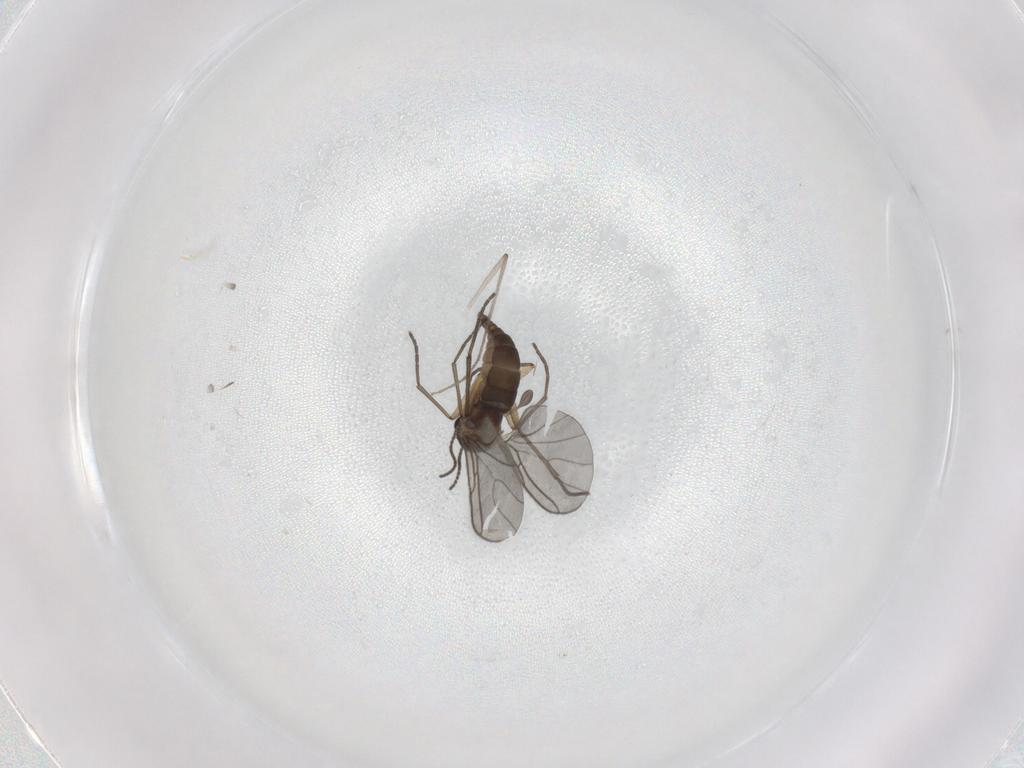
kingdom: Animalia
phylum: Arthropoda
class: Insecta
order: Diptera
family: Sciaridae
